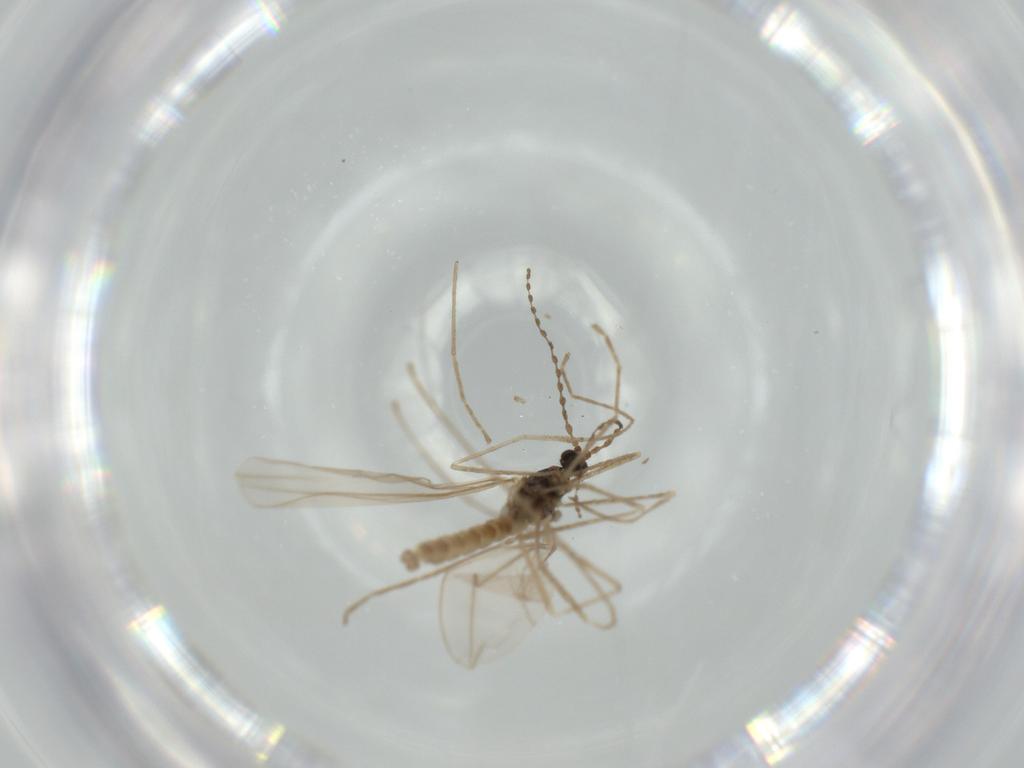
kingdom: Animalia
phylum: Arthropoda
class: Insecta
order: Diptera
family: Cecidomyiidae
